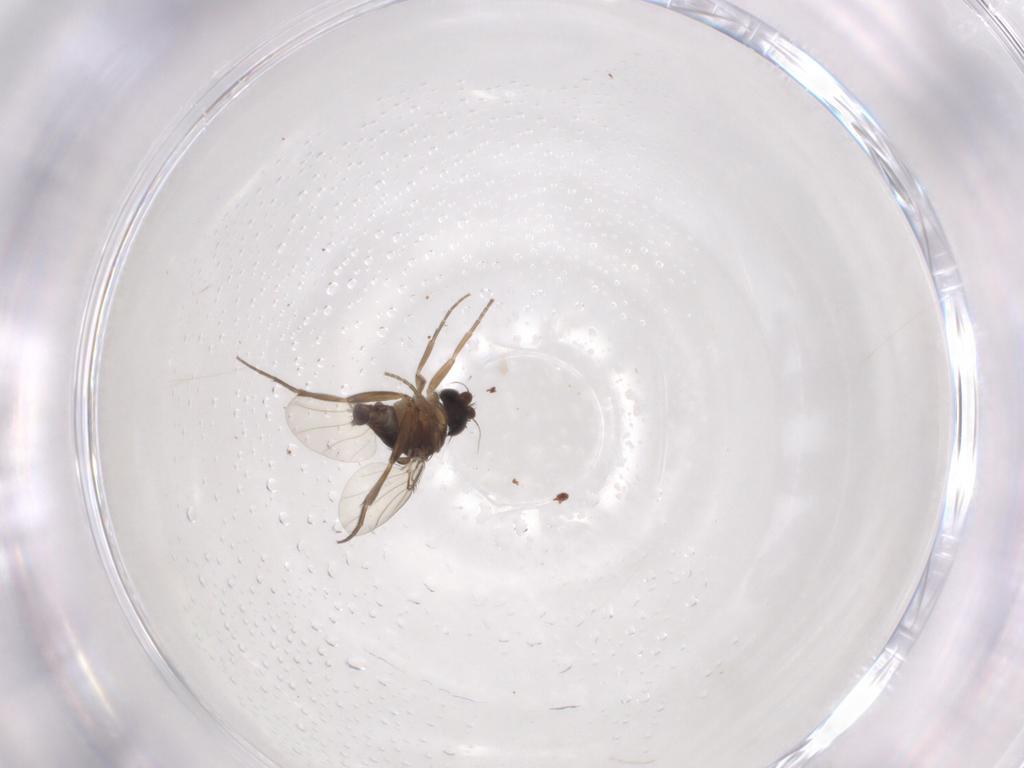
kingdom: Animalia
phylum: Arthropoda
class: Insecta
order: Diptera
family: Phoridae
